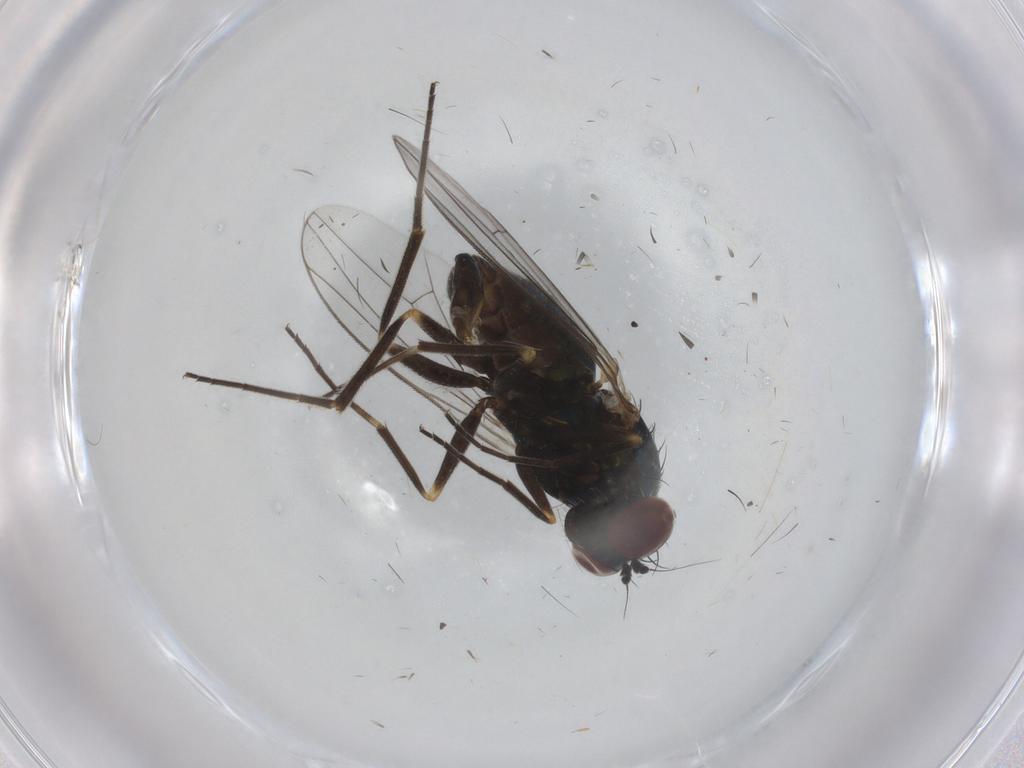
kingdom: Animalia
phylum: Arthropoda
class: Insecta
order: Diptera
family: Dolichopodidae
